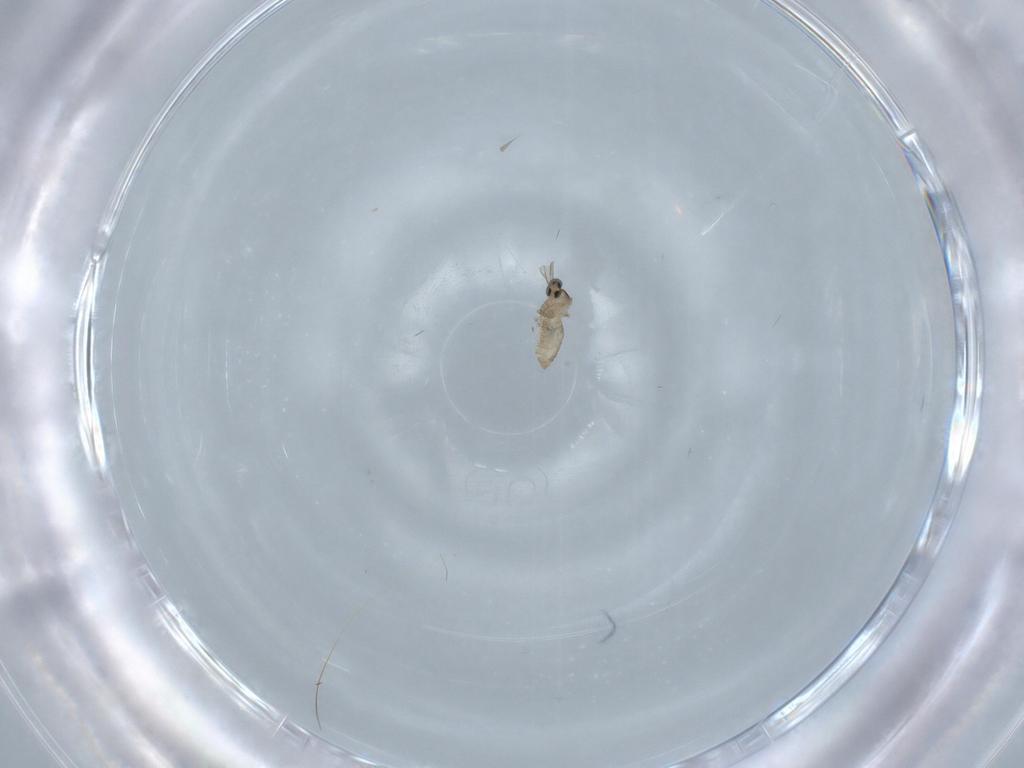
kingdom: Animalia
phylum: Arthropoda
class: Insecta
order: Diptera
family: Cecidomyiidae
